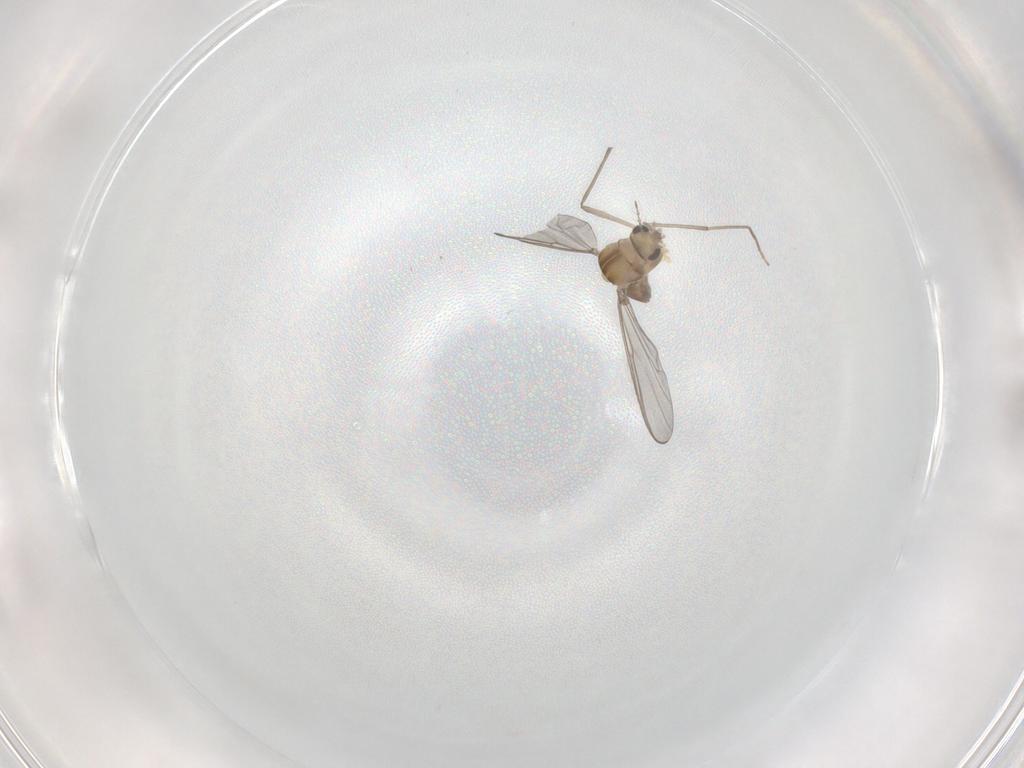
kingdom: Animalia
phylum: Arthropoda
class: Insecta
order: Diptera
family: Chironomidae
